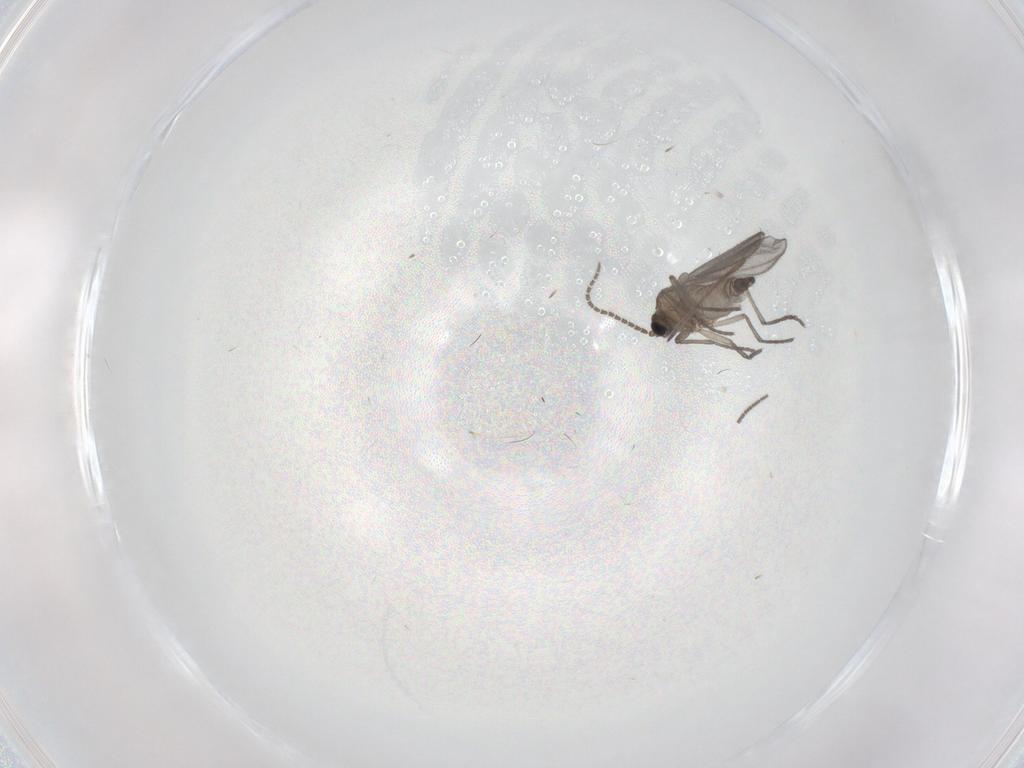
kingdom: Animalia
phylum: Arthropoda
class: Insecta
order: Diptera
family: Sciaridae
